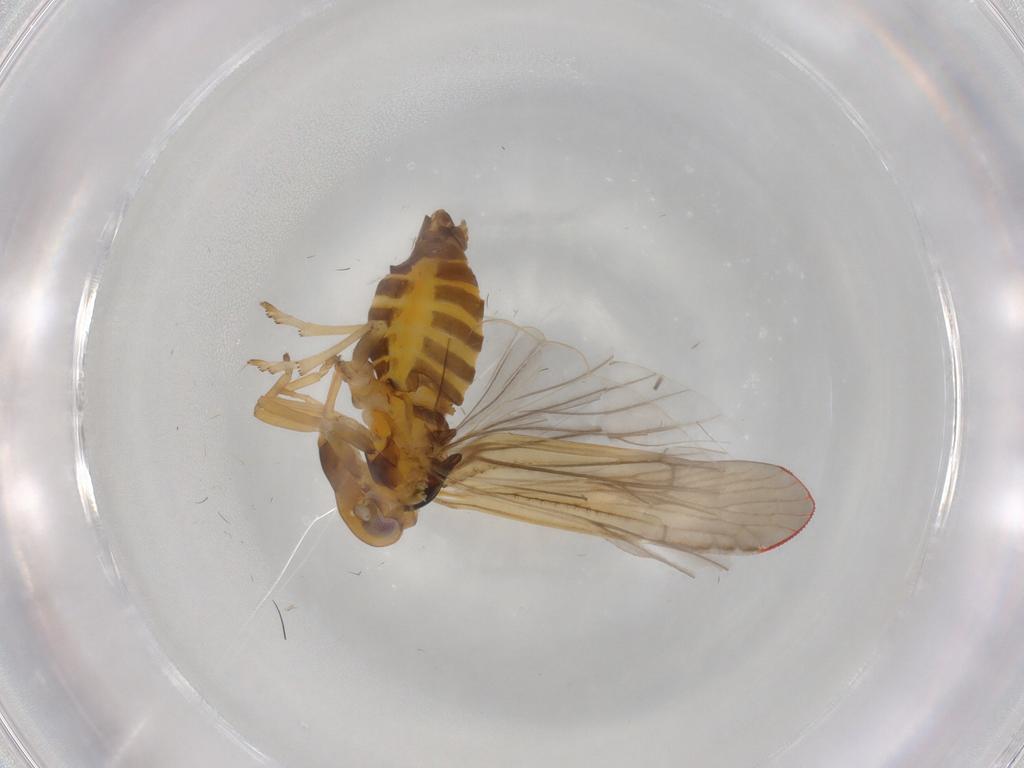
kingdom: Animalia
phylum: Arthropoda
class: Insecta
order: Hemiptera
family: Derbidae
